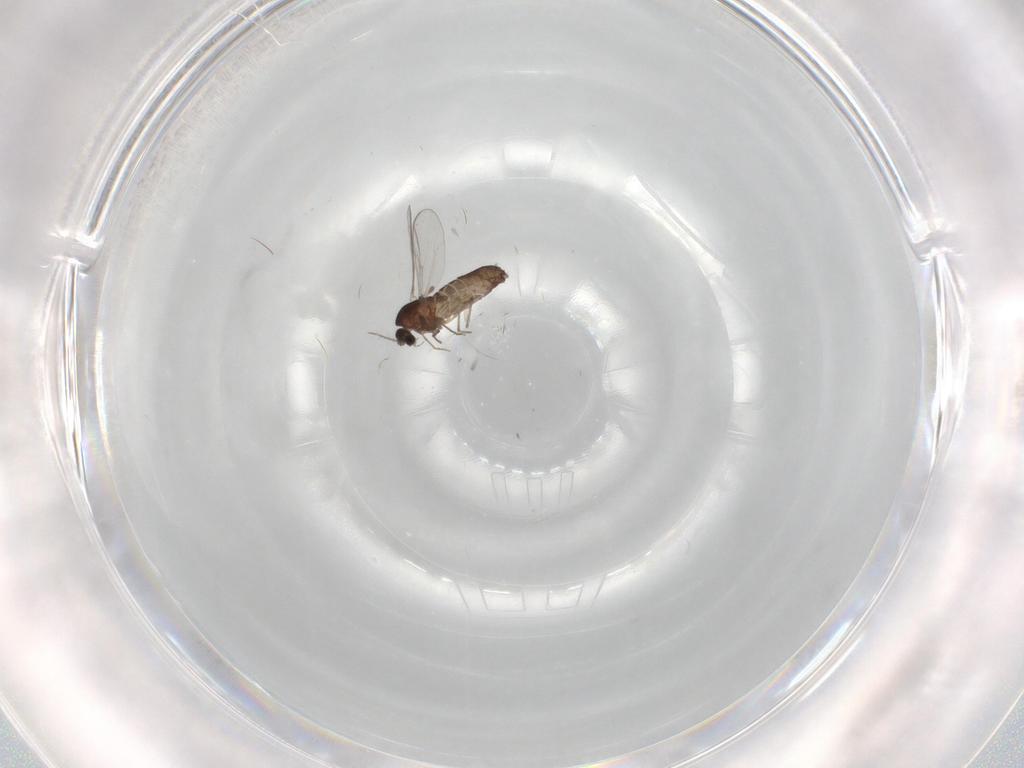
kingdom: Animalia
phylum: Arthropoda
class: Insecta
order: Diptera
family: Chironomidae
